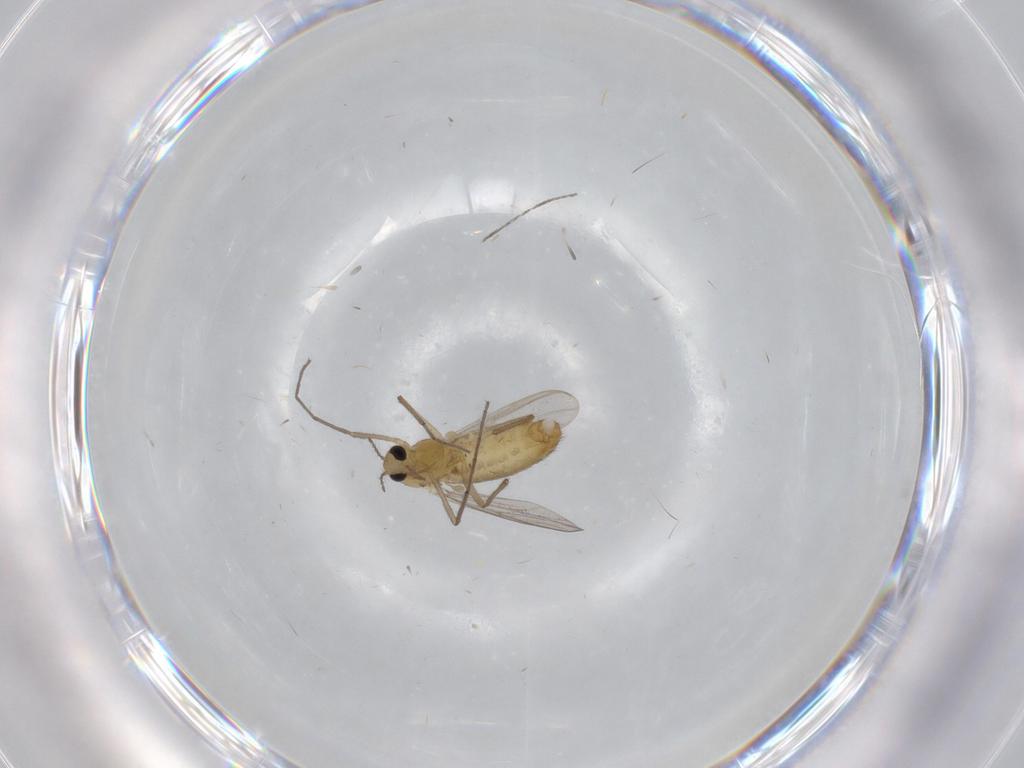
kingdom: Animalia
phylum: Arthropoda
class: Insecta
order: Diptera
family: Chironomidae
